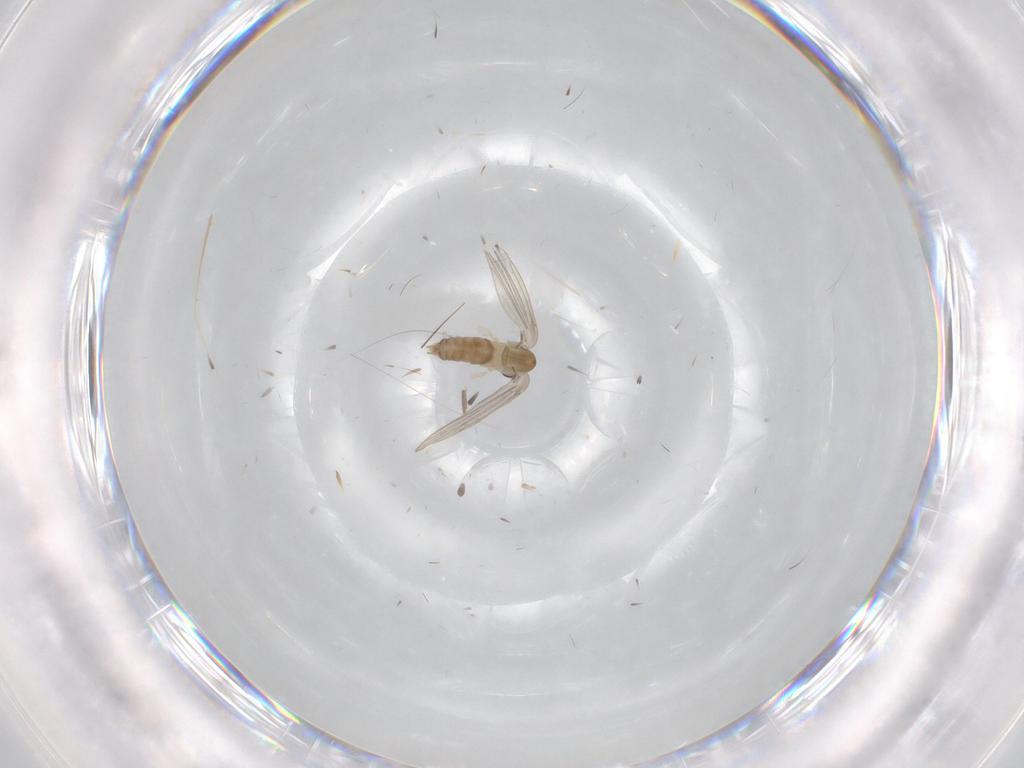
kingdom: Animalia
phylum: Arthropoda
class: Insecta
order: Diptera
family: Psychodidae
